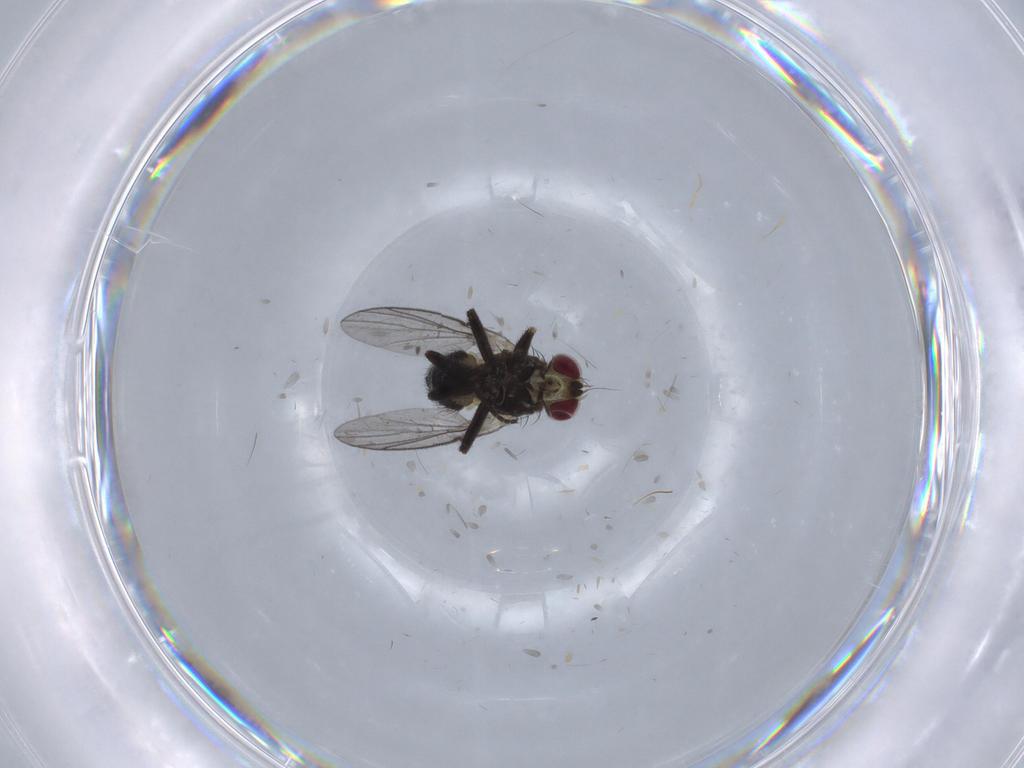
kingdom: Animalia
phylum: Arthropoda
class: Insecta
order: Diptera
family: Agromyzidae
